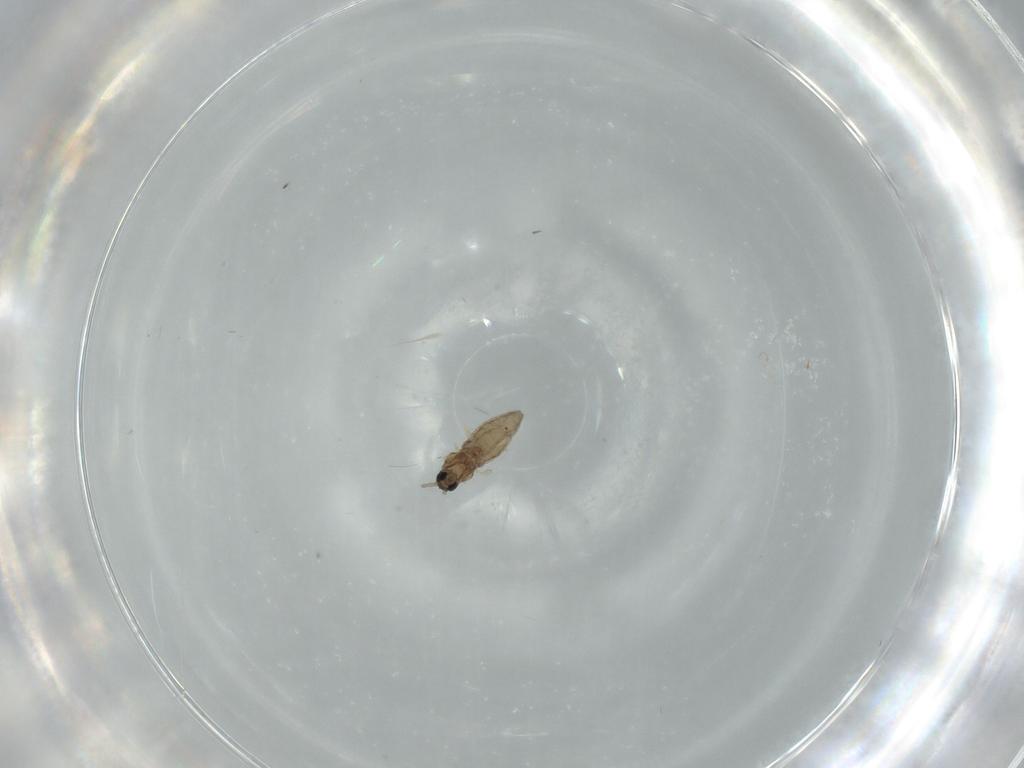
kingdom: Animalia
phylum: Arthropoda
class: Insecta
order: Diptera
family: Cecidomyiidae
